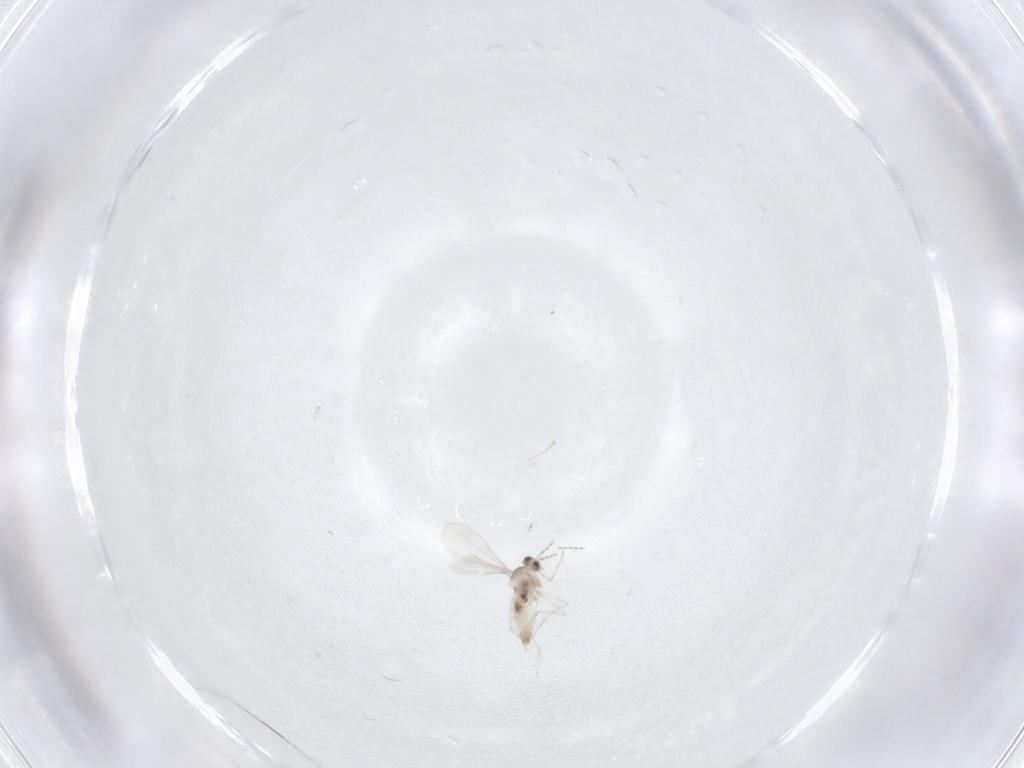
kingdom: Animalia
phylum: Arthropoda
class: Insecta
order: Diptera
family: Cecidomyiidae
